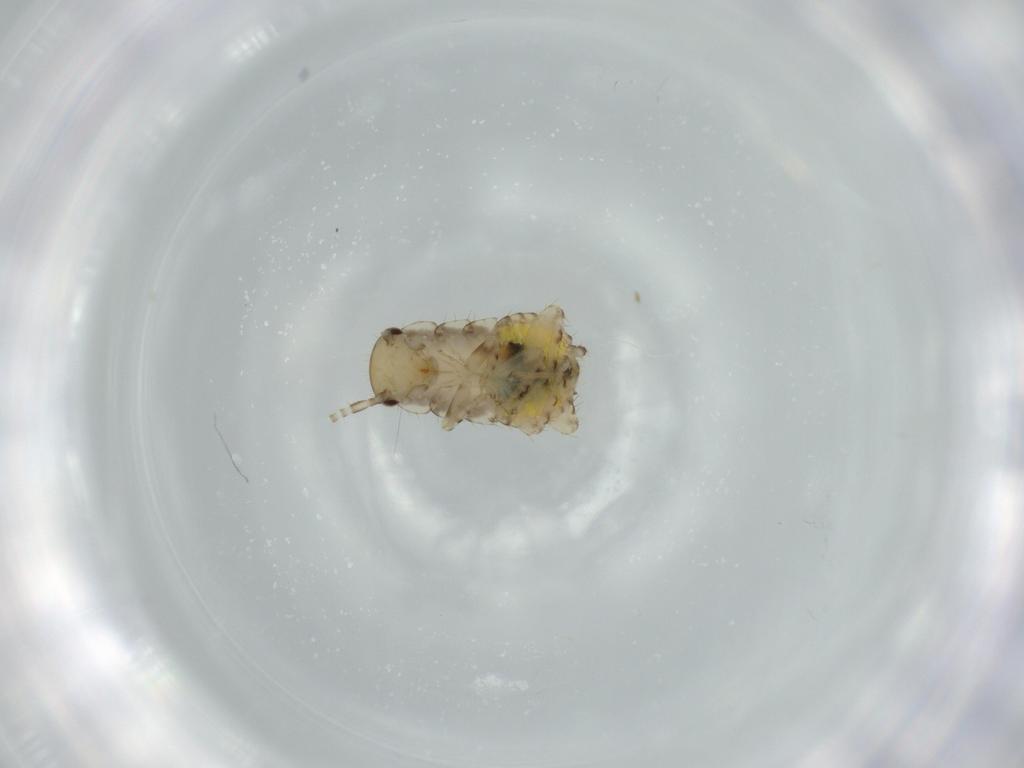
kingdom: Animalia
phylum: Arthropoda
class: Insecta
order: Blattodea
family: Ectobiidae
